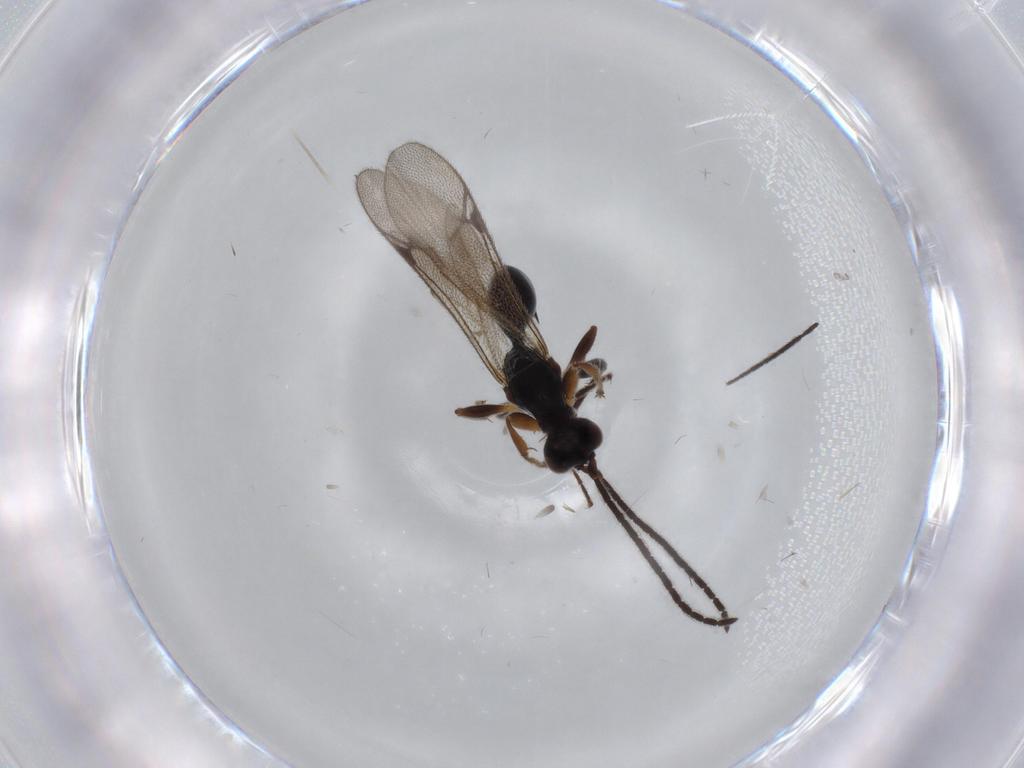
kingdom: Animalia
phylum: Arthropoda
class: Insecta
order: Hymenoptera
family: Proctotrupidae
